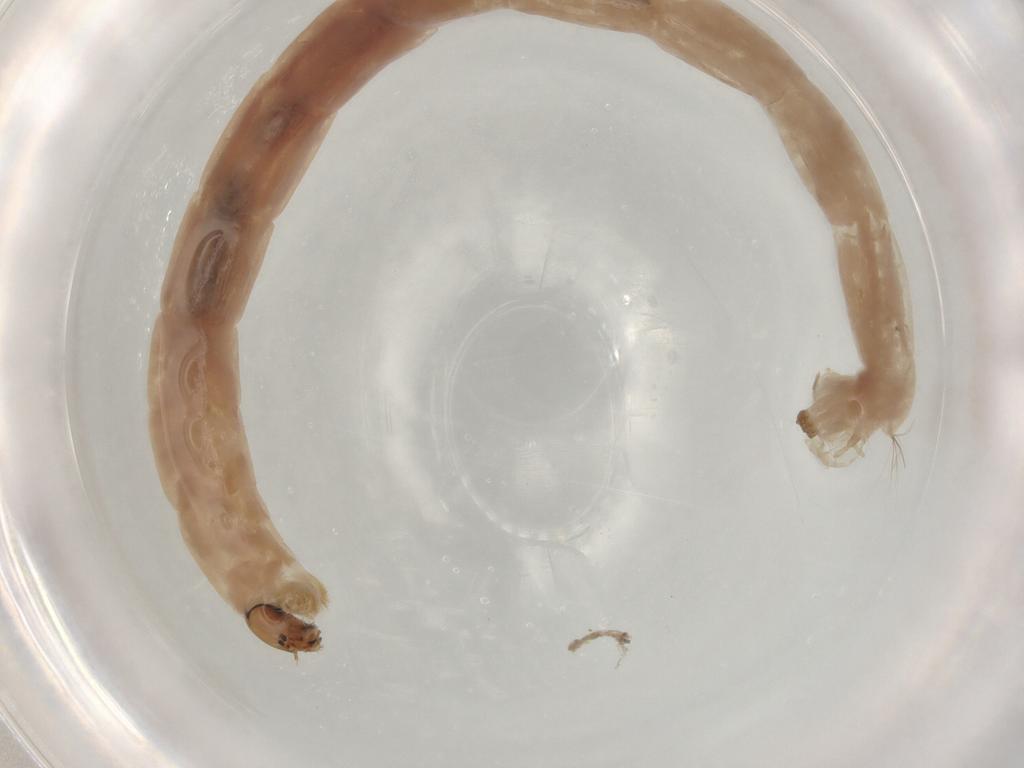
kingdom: Animalia
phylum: Arthropoda
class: Insecta
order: Diptera
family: Chironomidae
